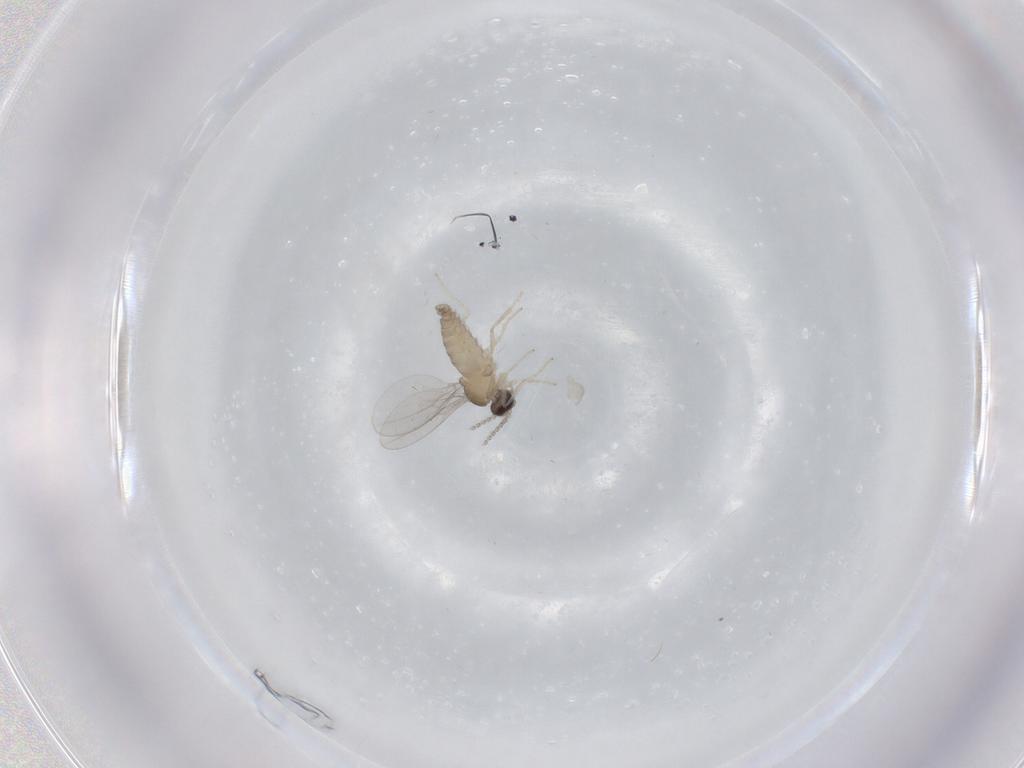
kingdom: Animalia
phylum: Arthropoda
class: Insecta
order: Diptera
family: Cecidomyiidae
